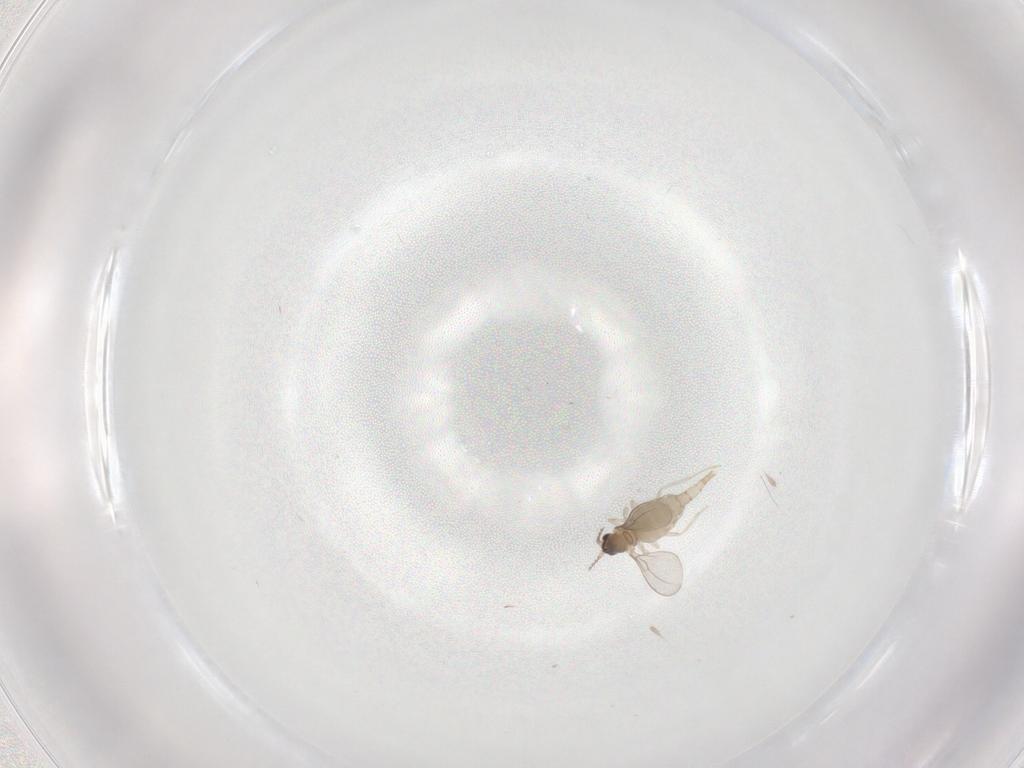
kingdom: Animalia
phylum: Arthropoda
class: Insecta
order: Diptera
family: Cecidomyiidae
